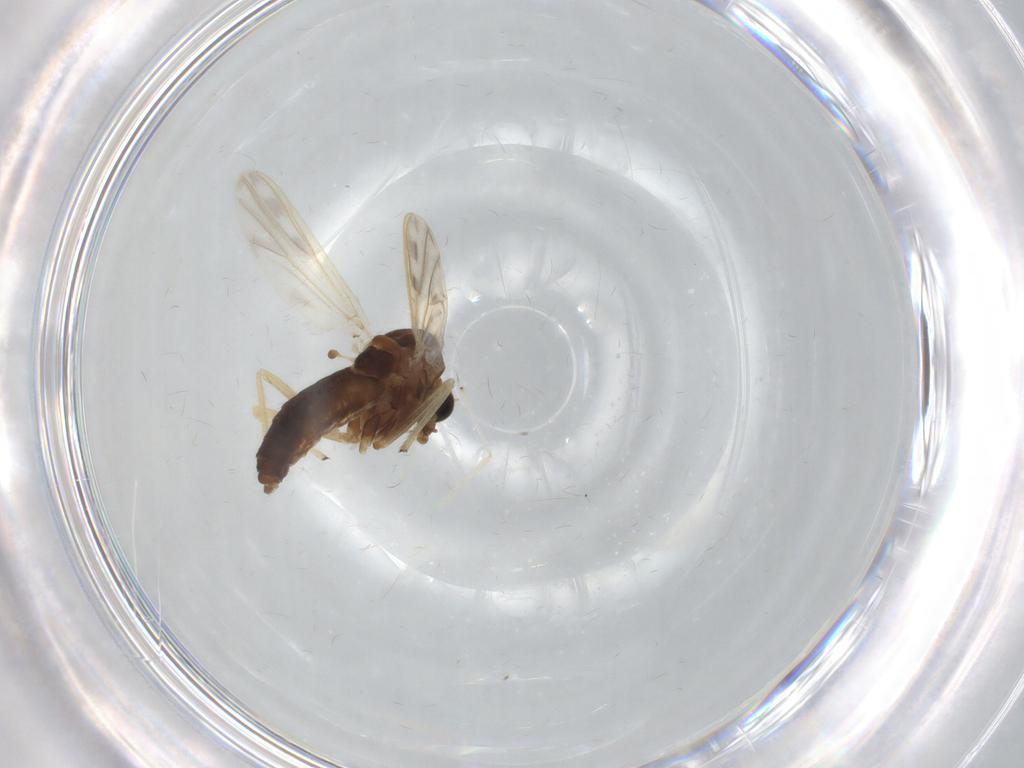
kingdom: Animalia
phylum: Arthropoda
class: Insecta
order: Diptera
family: Chironomidae
